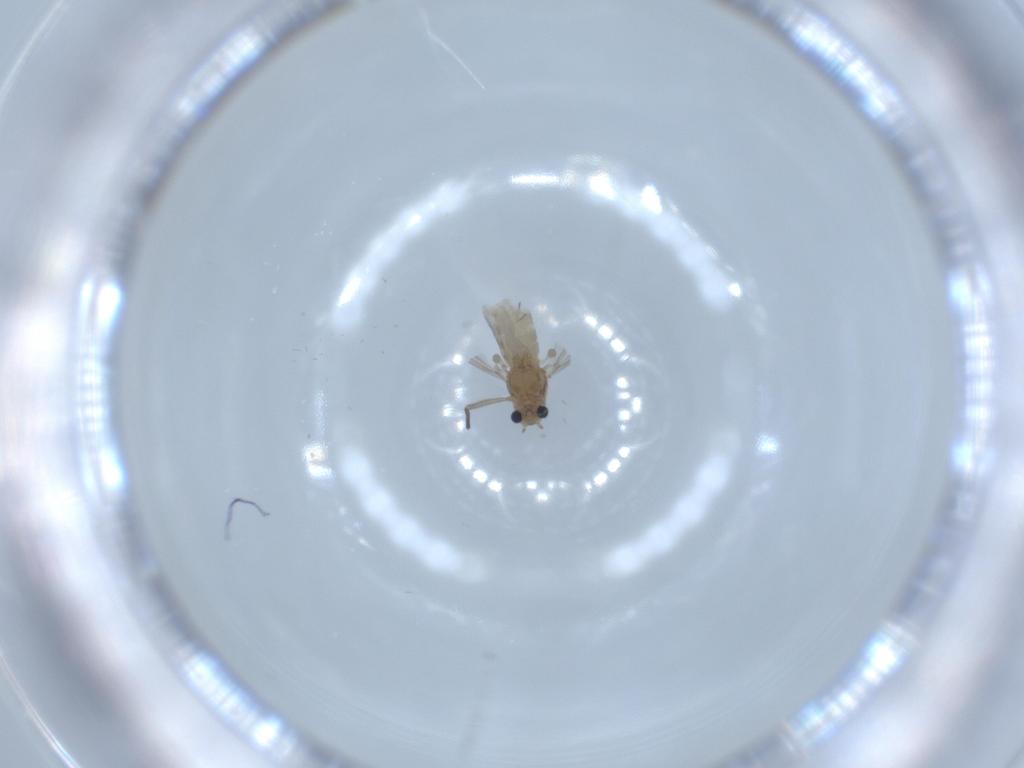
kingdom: Animalia
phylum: Arthropoda
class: Insecta
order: Diptera
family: Chironomidae
